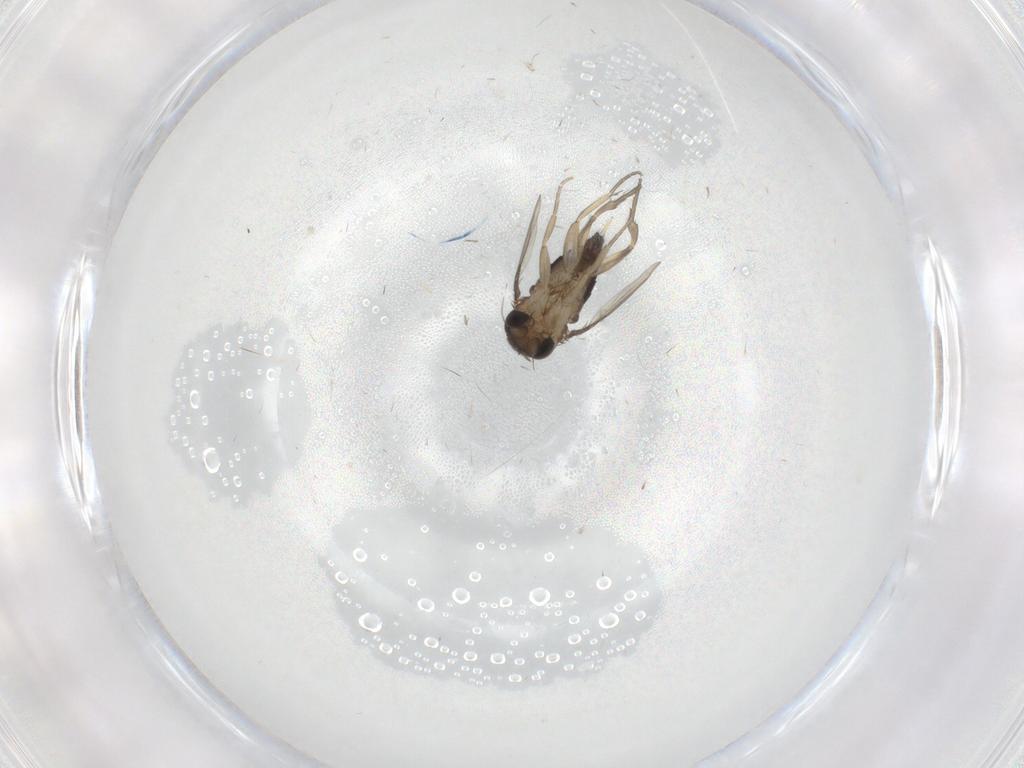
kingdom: Animalia
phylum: Arthropoda
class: Insecta
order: Diptera
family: Phoridae
